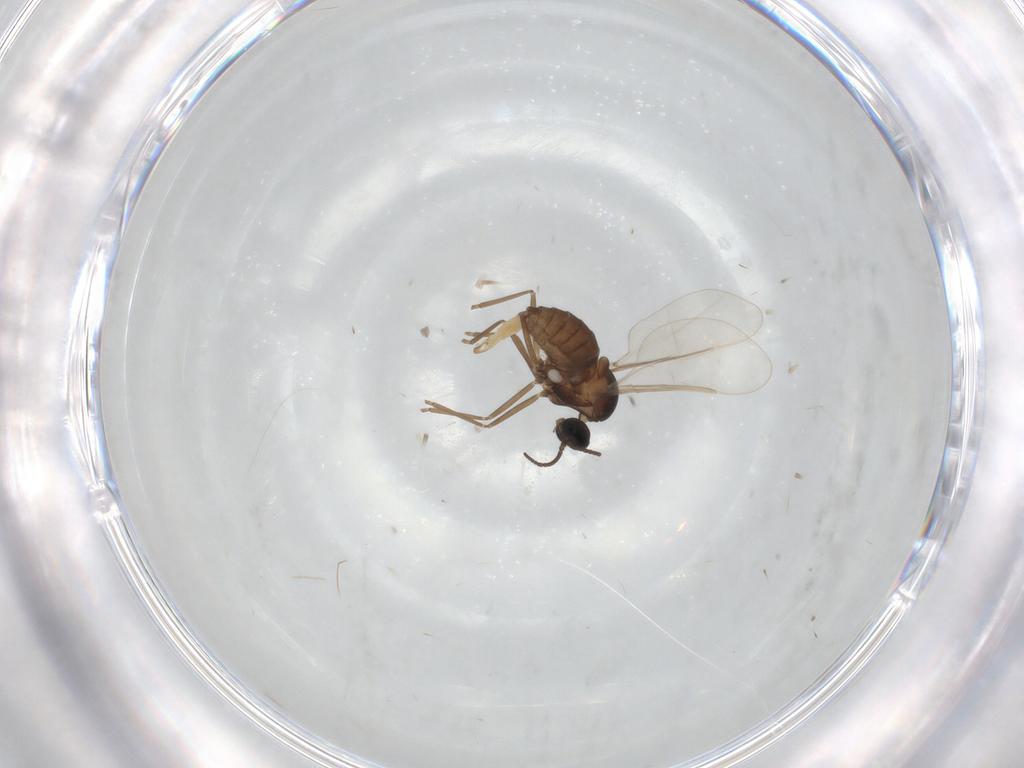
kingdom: Animalia
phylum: Arthropoda
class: Insecta
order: Diptera
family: Cecidomyiidae
